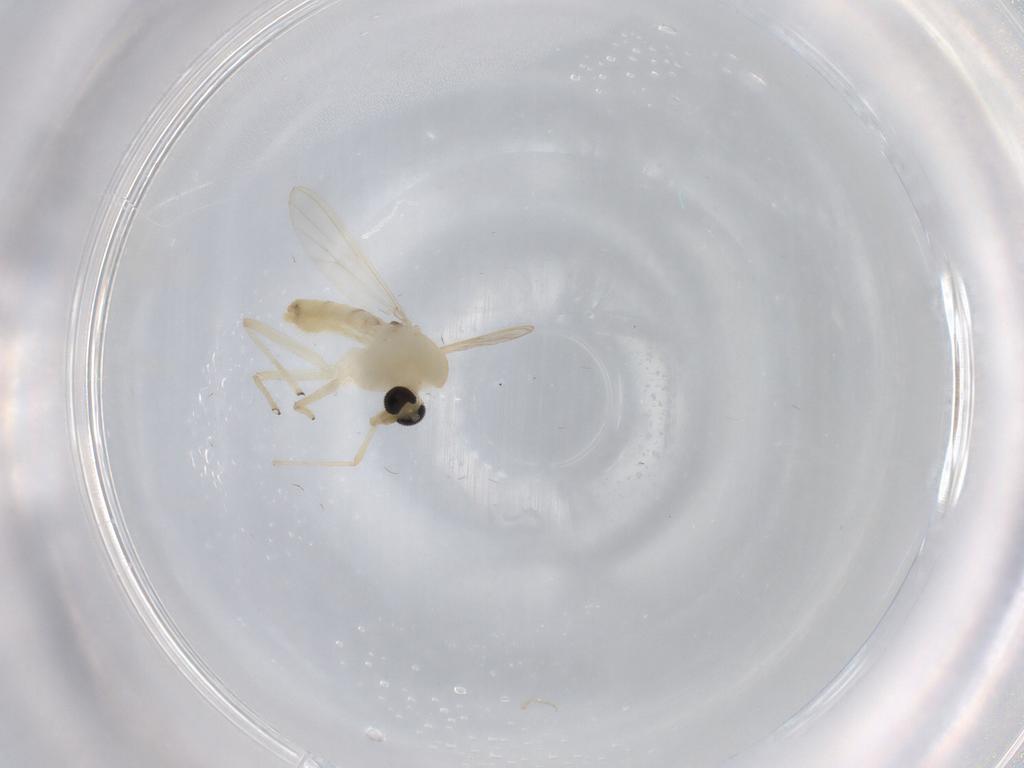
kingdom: Animalia
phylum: Arthropoda
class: Insecta
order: Diptera
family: Chironomidae
